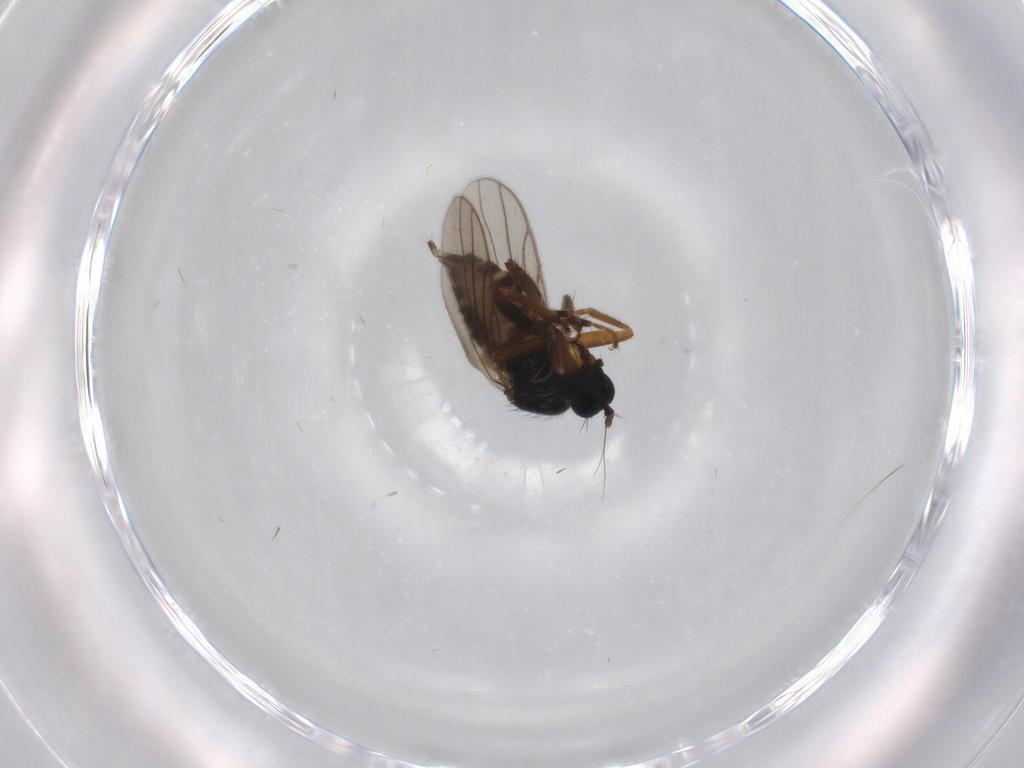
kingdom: Animalia
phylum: Arthropoda
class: Insecta
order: Diptera
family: Hybotidae
